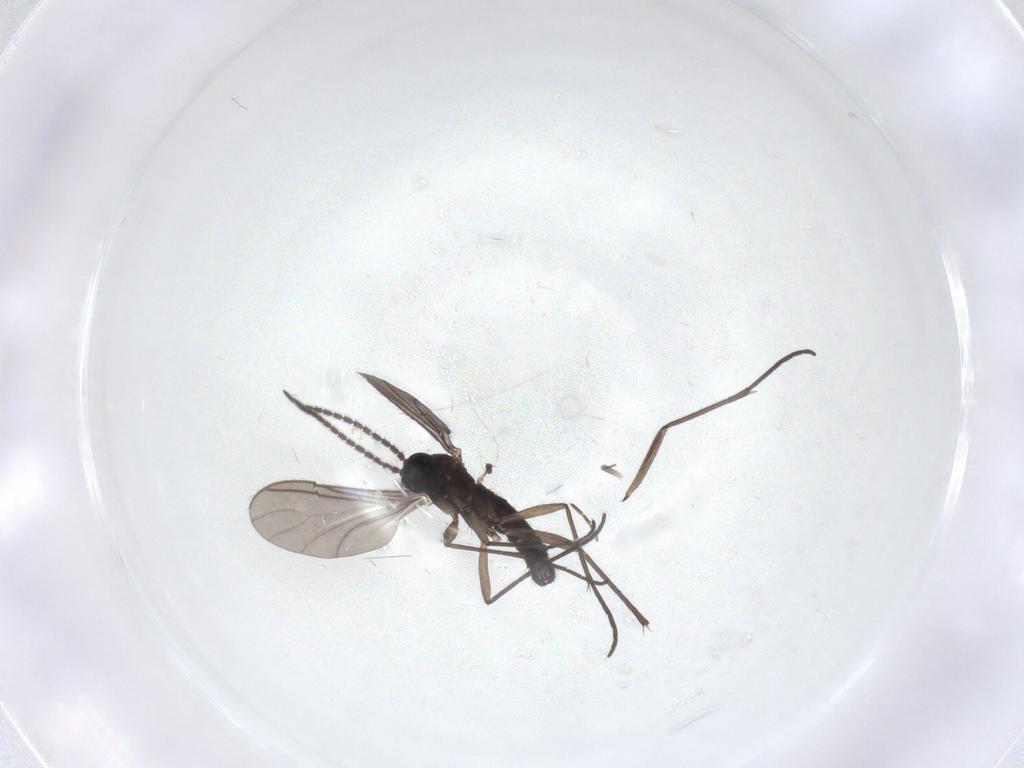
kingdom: Animalia
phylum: Arthropoda
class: Insecta
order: Diptera
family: Sciaridae
